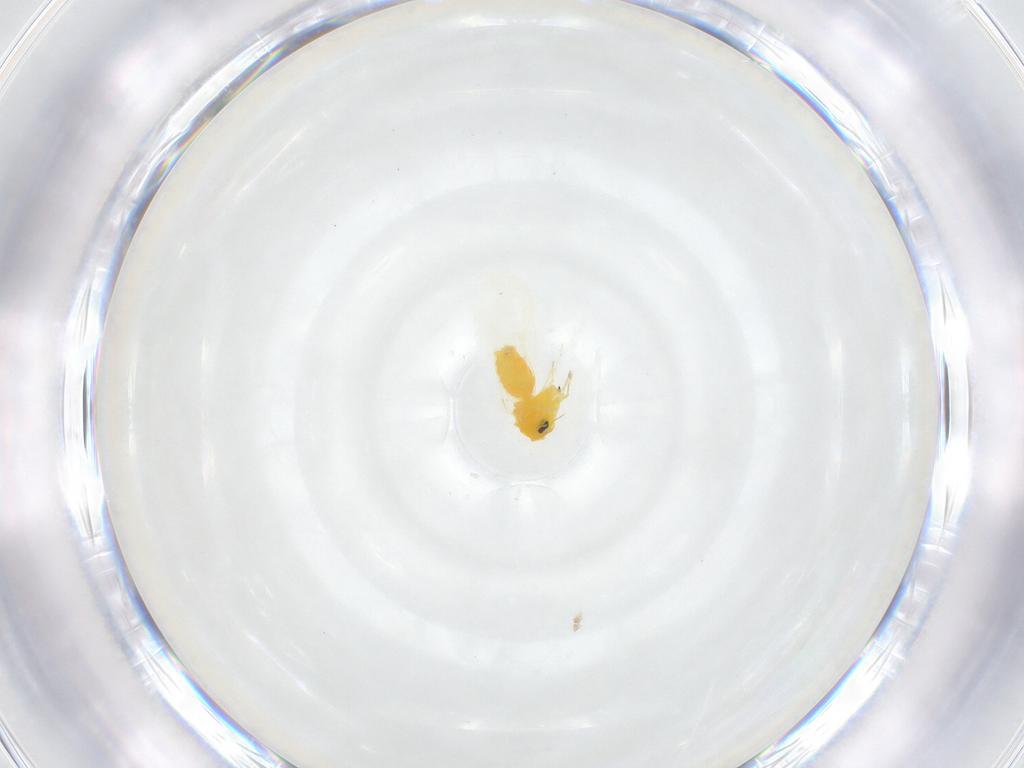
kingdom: Animalia
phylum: Arthropoda
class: Insecta
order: Hemiptera
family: Aleyrodidae
